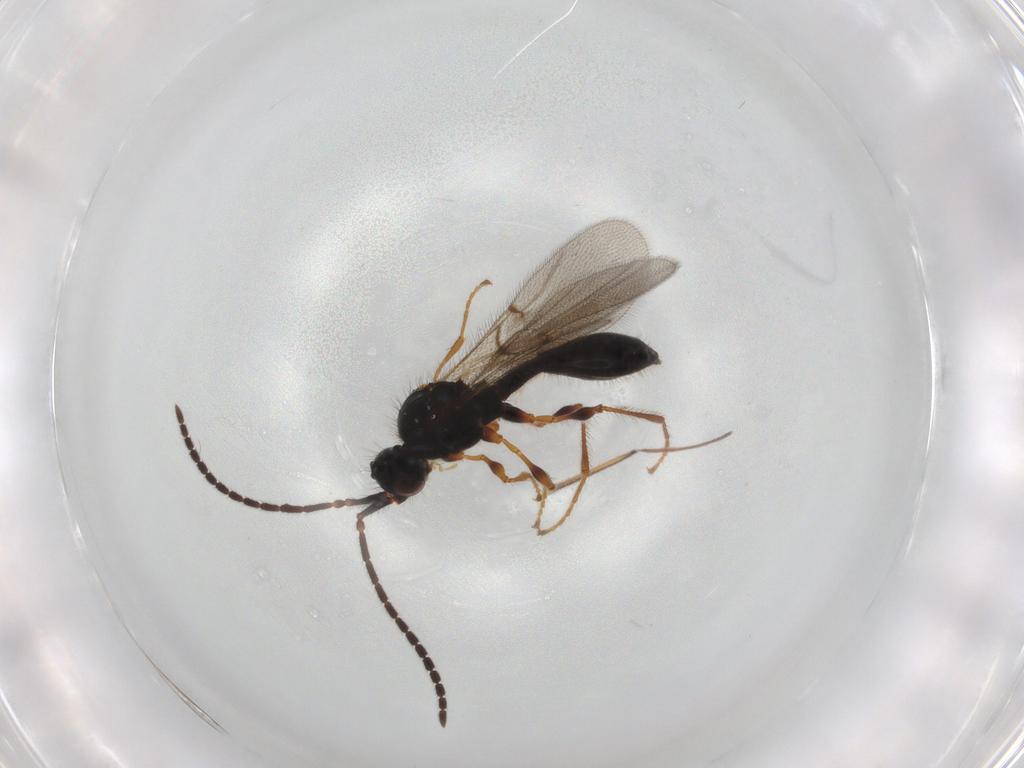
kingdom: Animalia
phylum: Arthropoda
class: Insecta
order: Hymenoptera
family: Diapriidae
